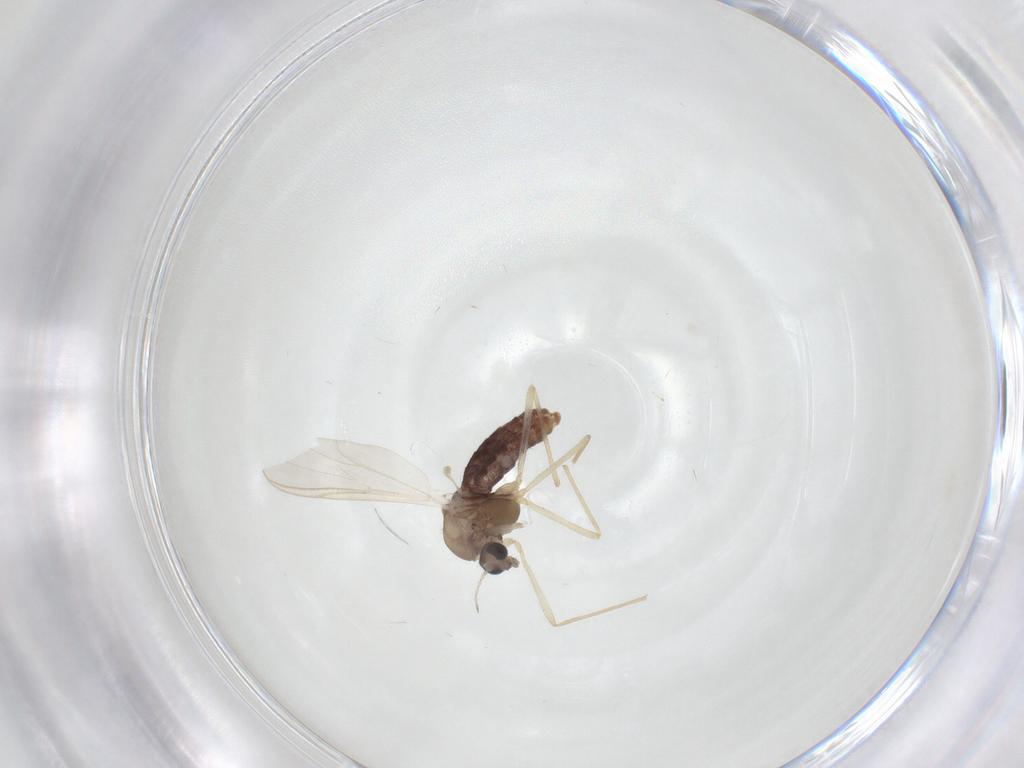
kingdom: Animalia
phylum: Arthropoda
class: Insecta
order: Diptera
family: Chironomidae
